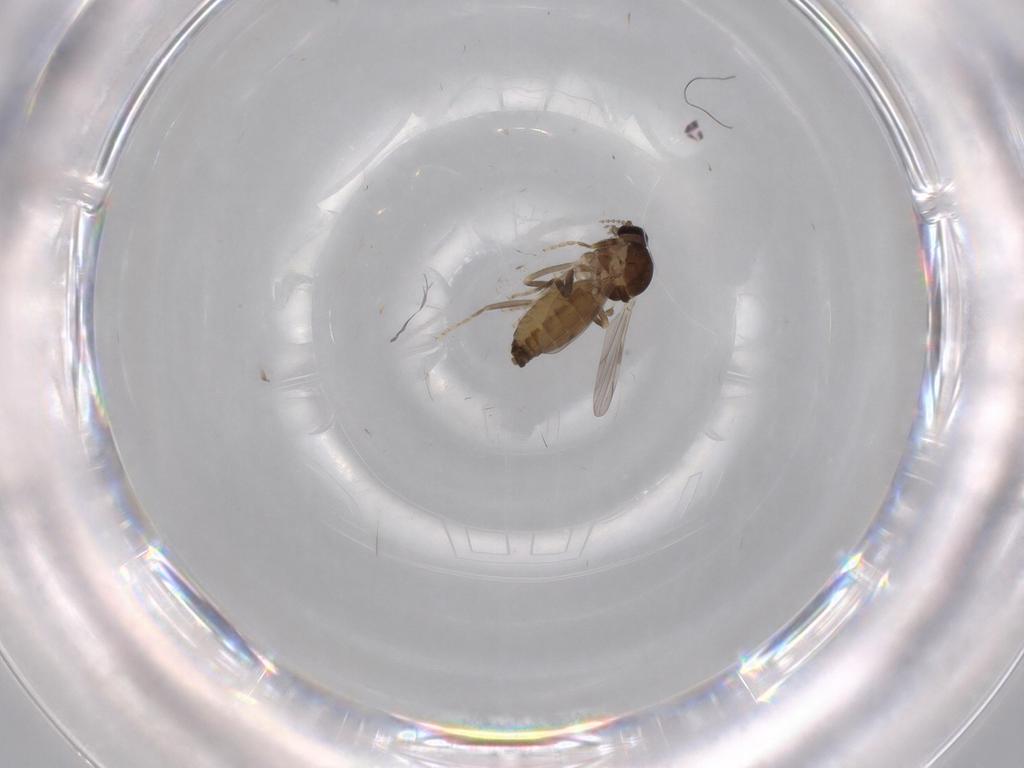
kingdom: Animalia
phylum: Arthropoda
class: Insecta
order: Diptera
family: Ceratopogonidae
